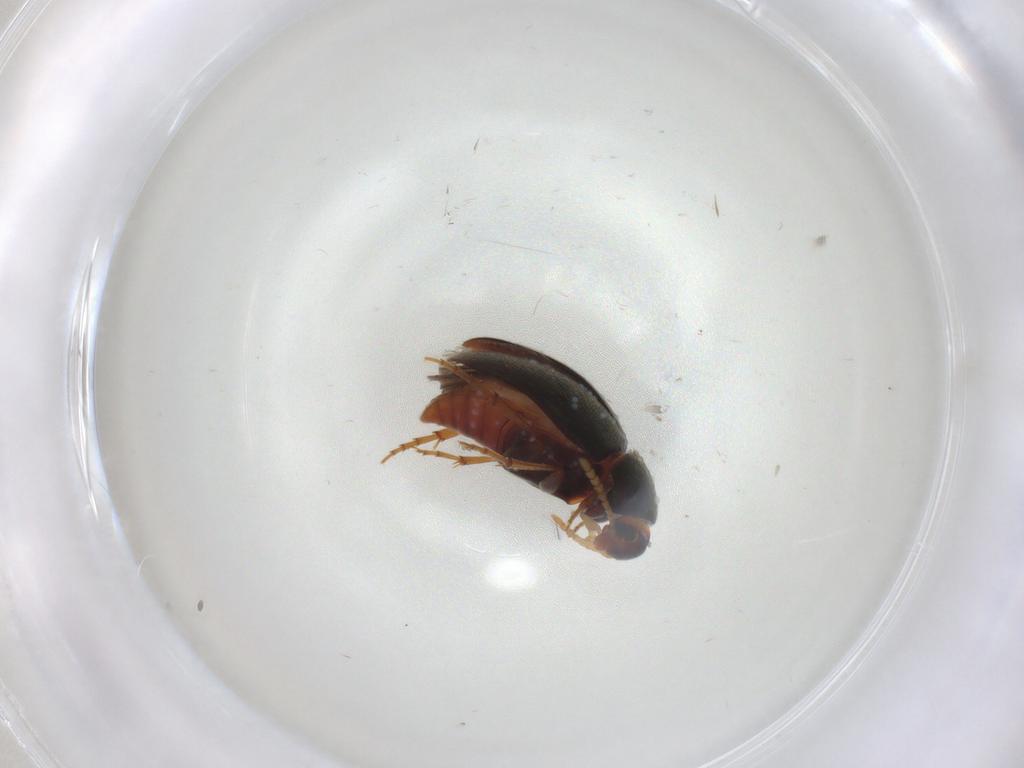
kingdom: Animalia
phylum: Arthropoda
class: Insecta
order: Coleoptera
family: Scraptiidae
